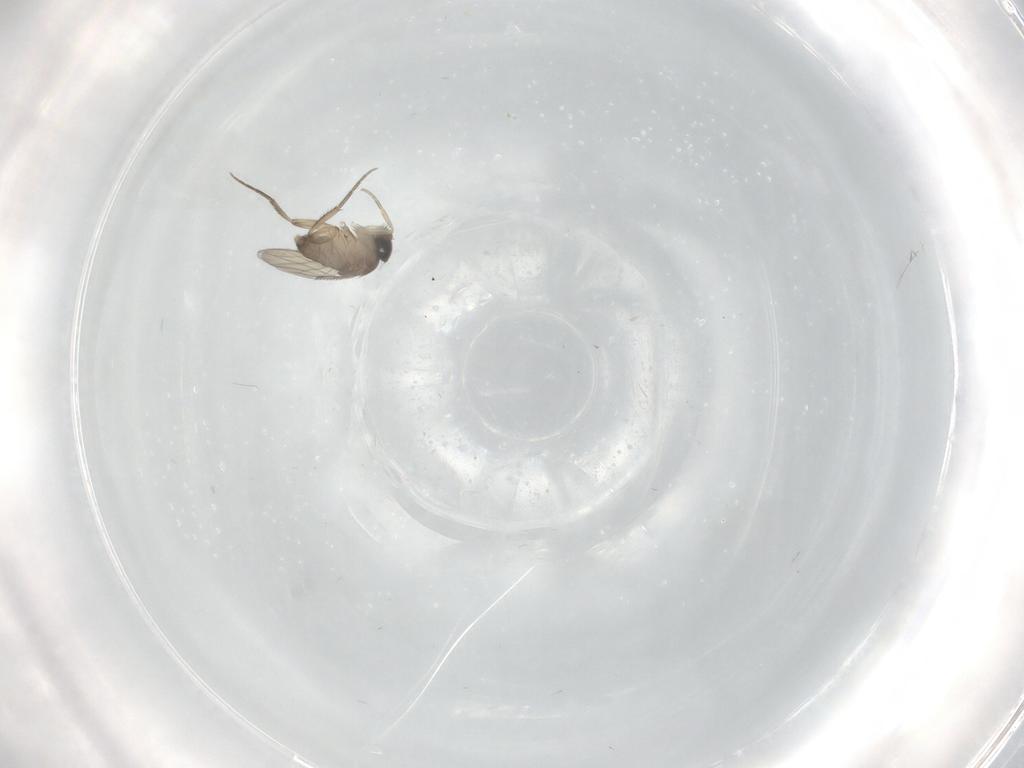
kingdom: Animalia
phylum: Arthropoda
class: Insecta
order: Diptera
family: Phoridae
